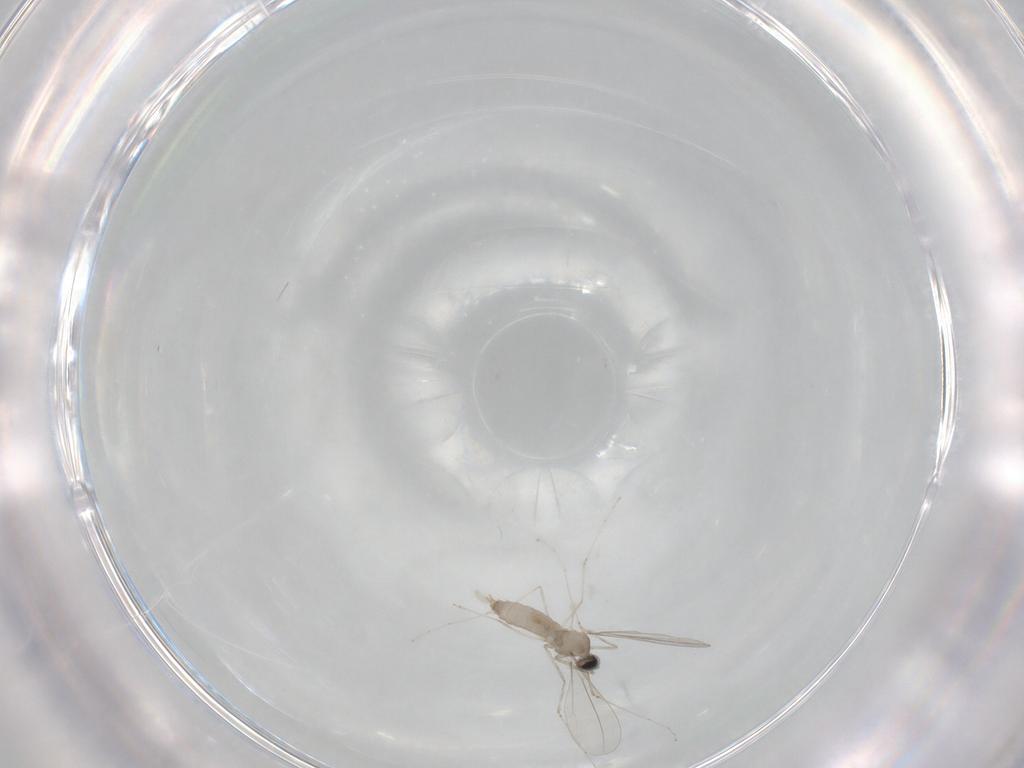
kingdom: Animalia
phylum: Arthropoda
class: Insecta
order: Diptera
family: Cecidomyiidae
